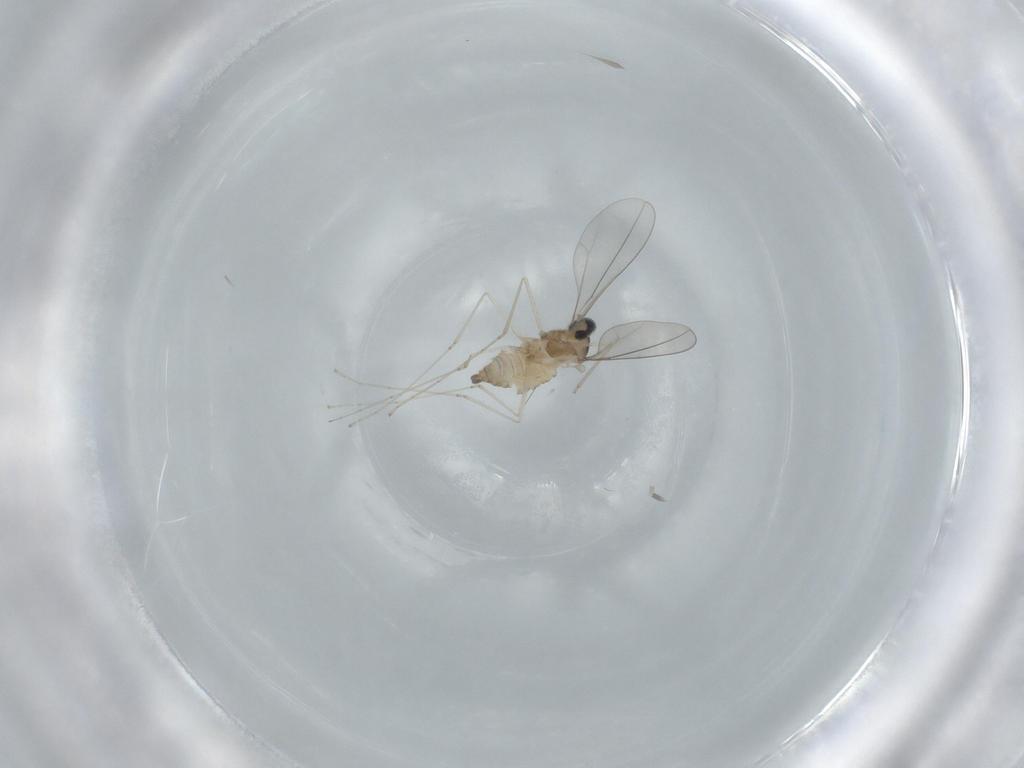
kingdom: Animalia
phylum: Arthropoda
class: Insecta
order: Diptera
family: Cecidomyiidae
